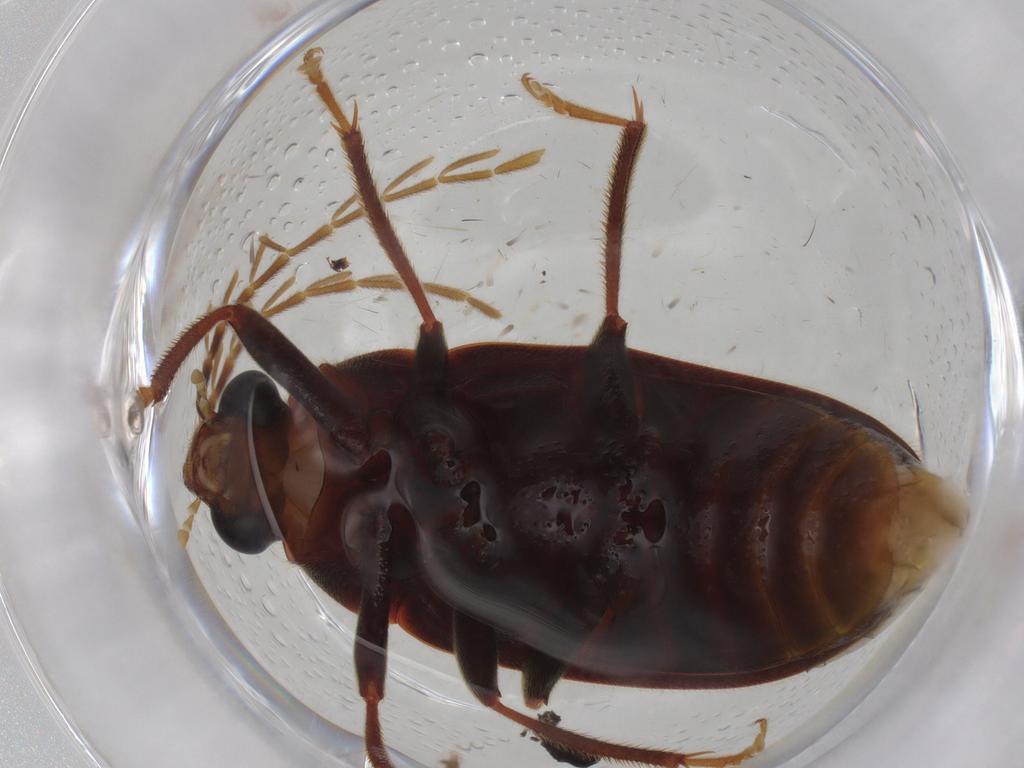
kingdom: Animalia
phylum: Arthropoda
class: Insecta
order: Coleoptera
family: Ptilodactylidae
